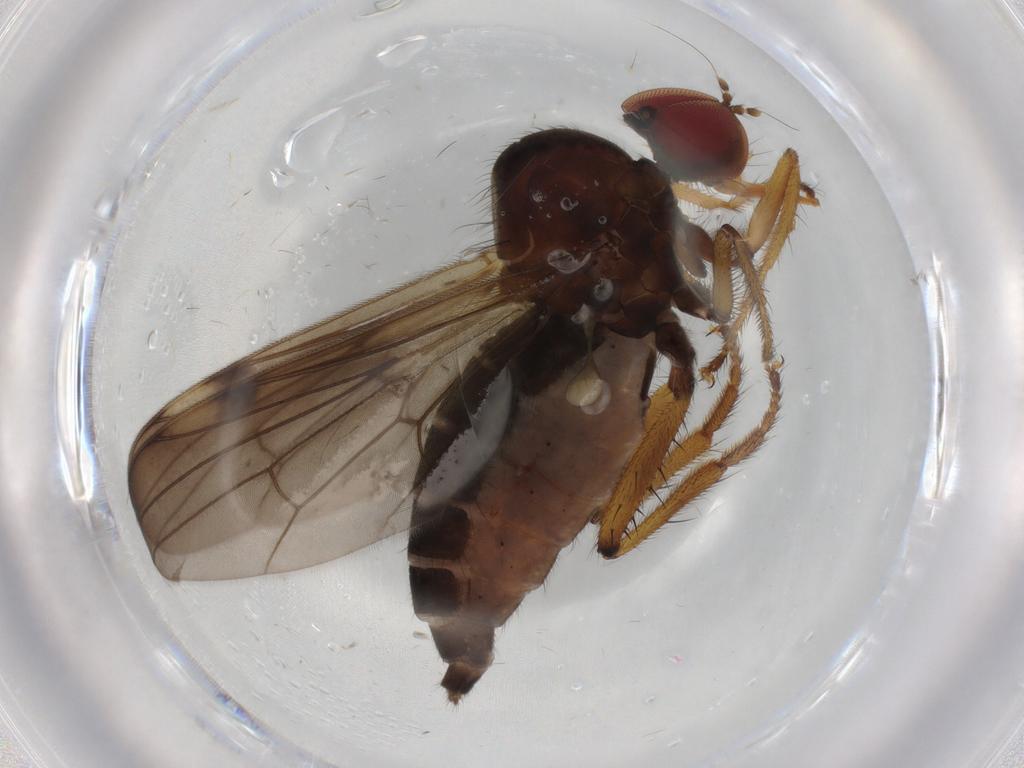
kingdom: Animalia
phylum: Arthropoda
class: Insecta
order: Diptera
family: Hybotidae
